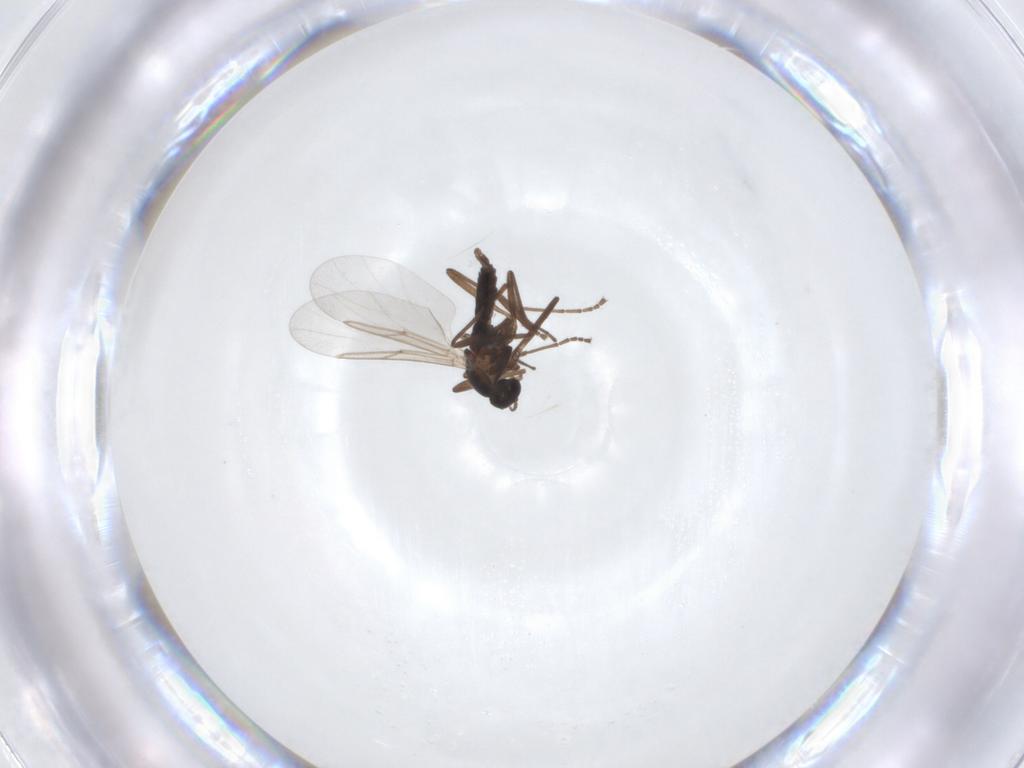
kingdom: Animalia
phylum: Arthropoda
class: Insecta
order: Diptera
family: Cecidomyiidae
